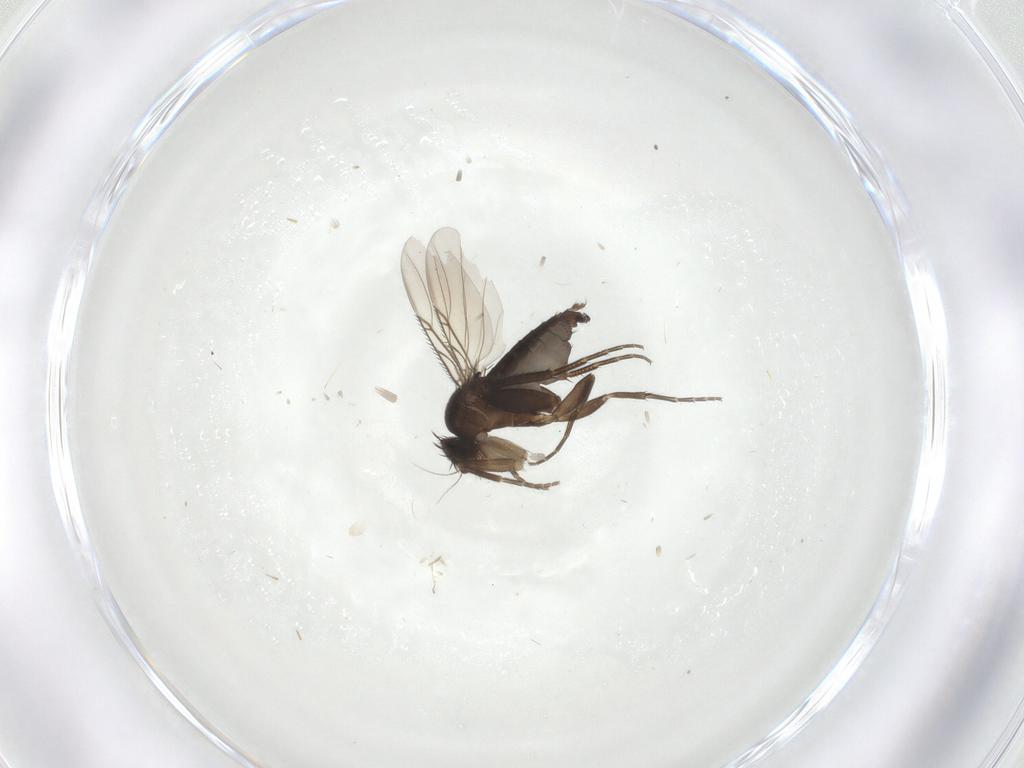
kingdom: Animalia
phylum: Arthropoda
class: Insecta
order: Diptera
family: Phoridae
